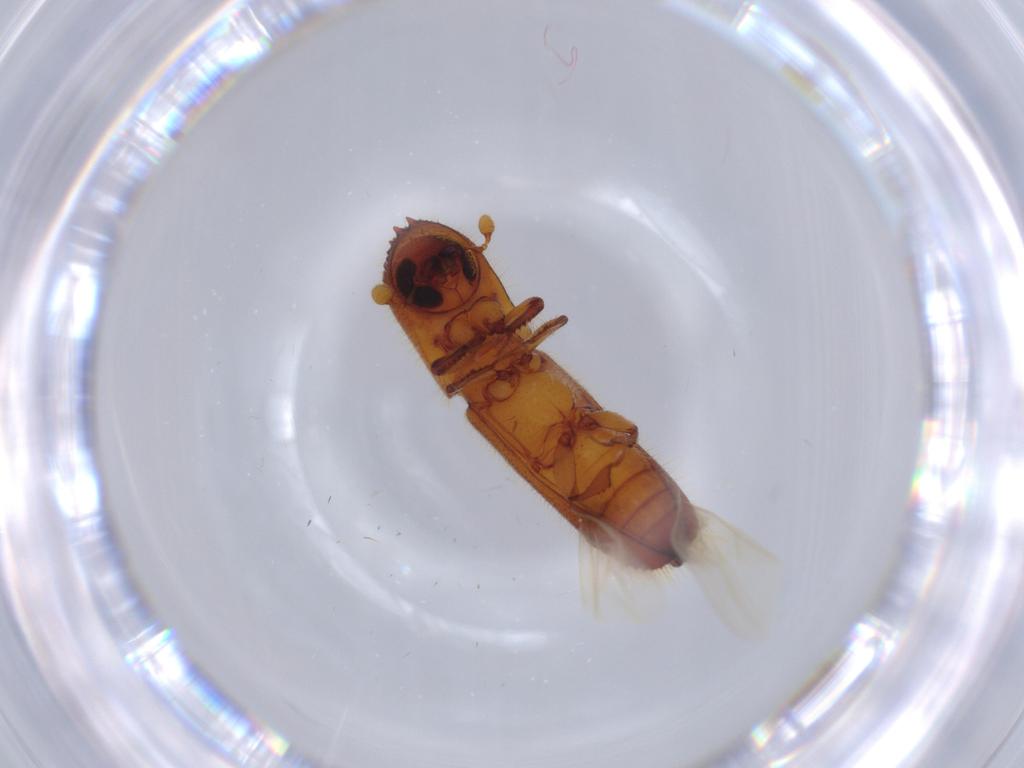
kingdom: Animalia
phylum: Arthropoda
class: Insecta
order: Coleoptera
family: Curculionidae
